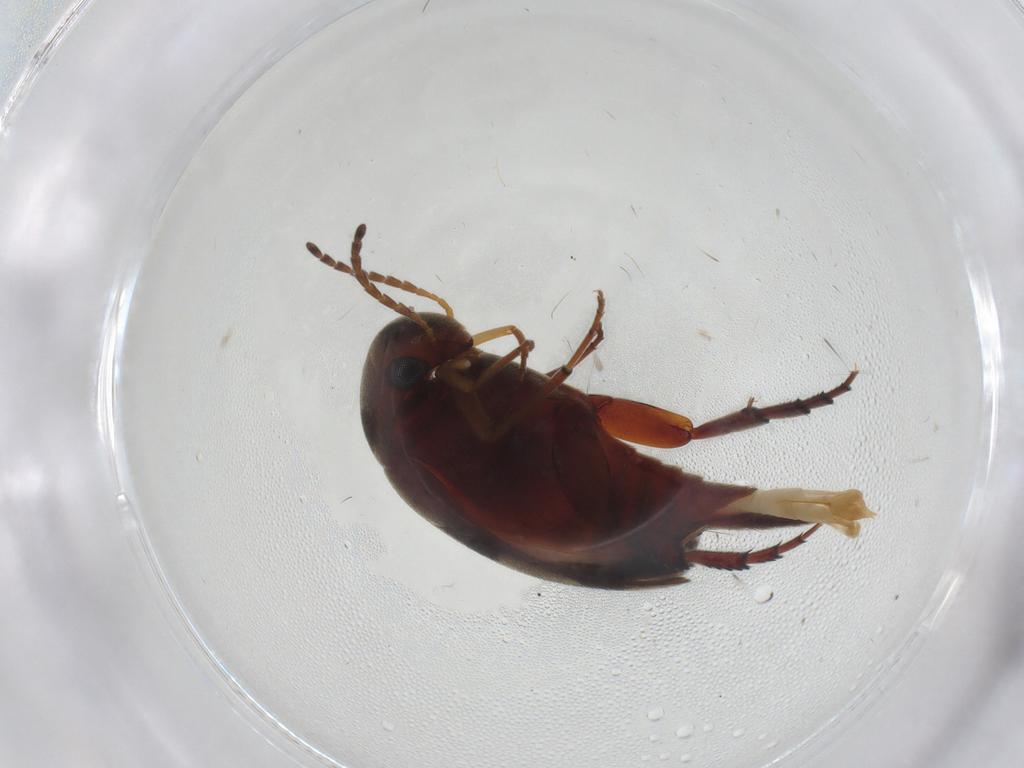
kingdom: Animalia
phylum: Arthropoda
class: Insecta
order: Coleoptera
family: Mordellidae
